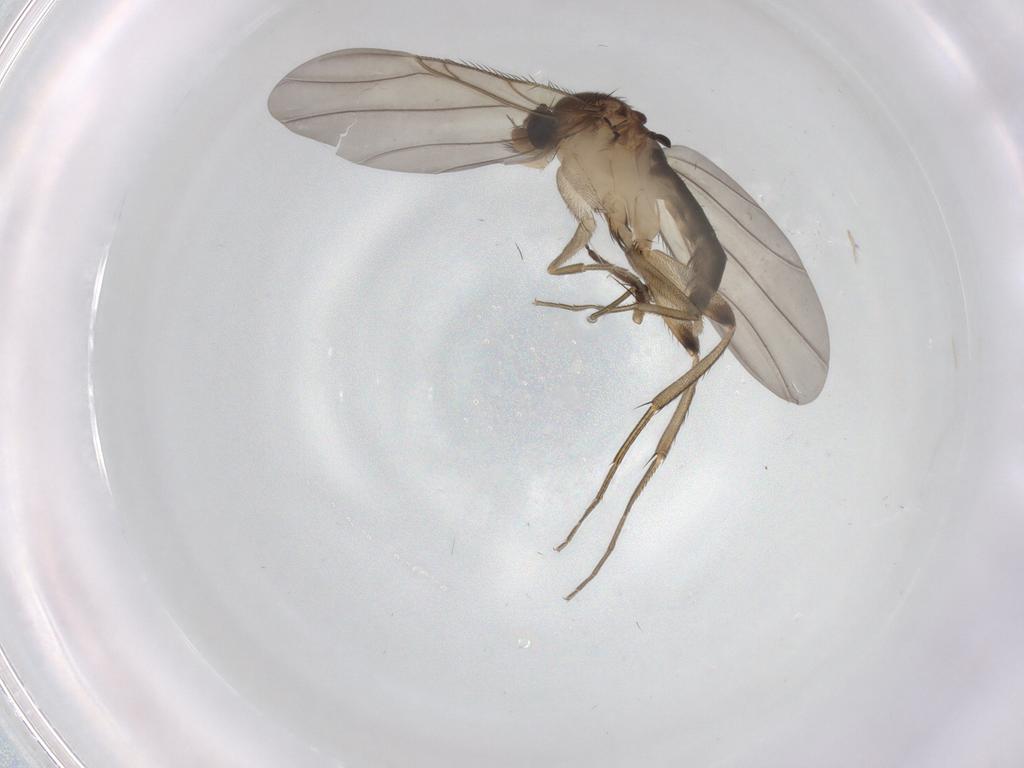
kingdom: Animalia
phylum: Arthropoda
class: Insecta
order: Diptera
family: Phoridae
